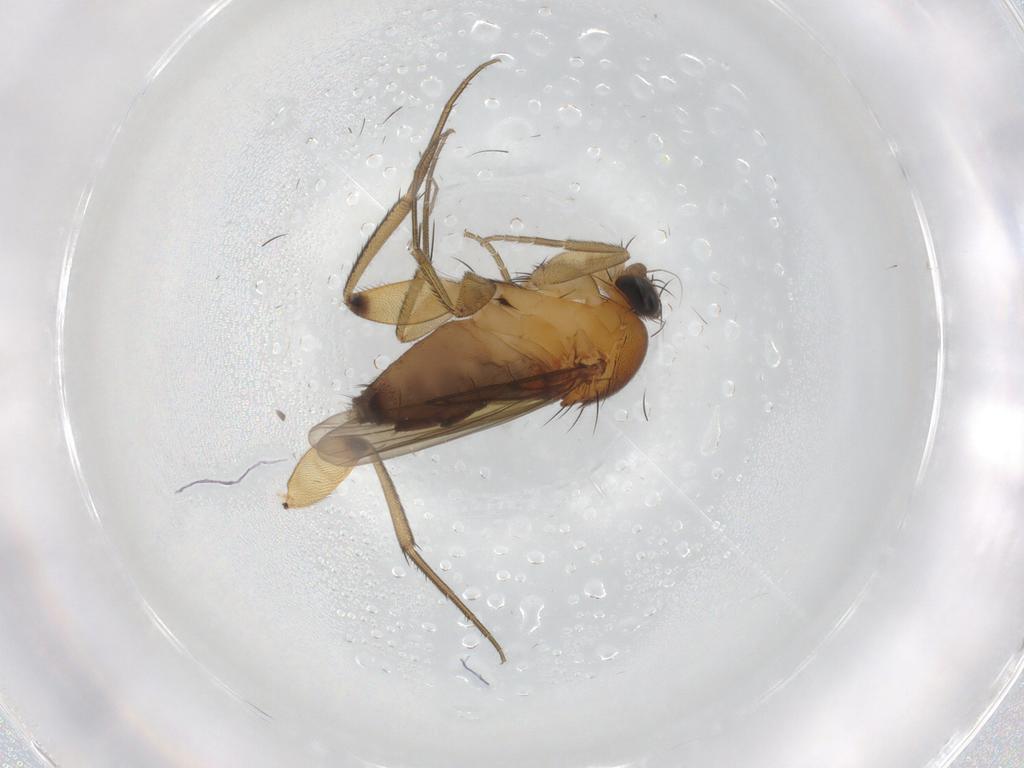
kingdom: Animalia
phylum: Arthropoda
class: Insecta
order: Diptera
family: Phoridae
